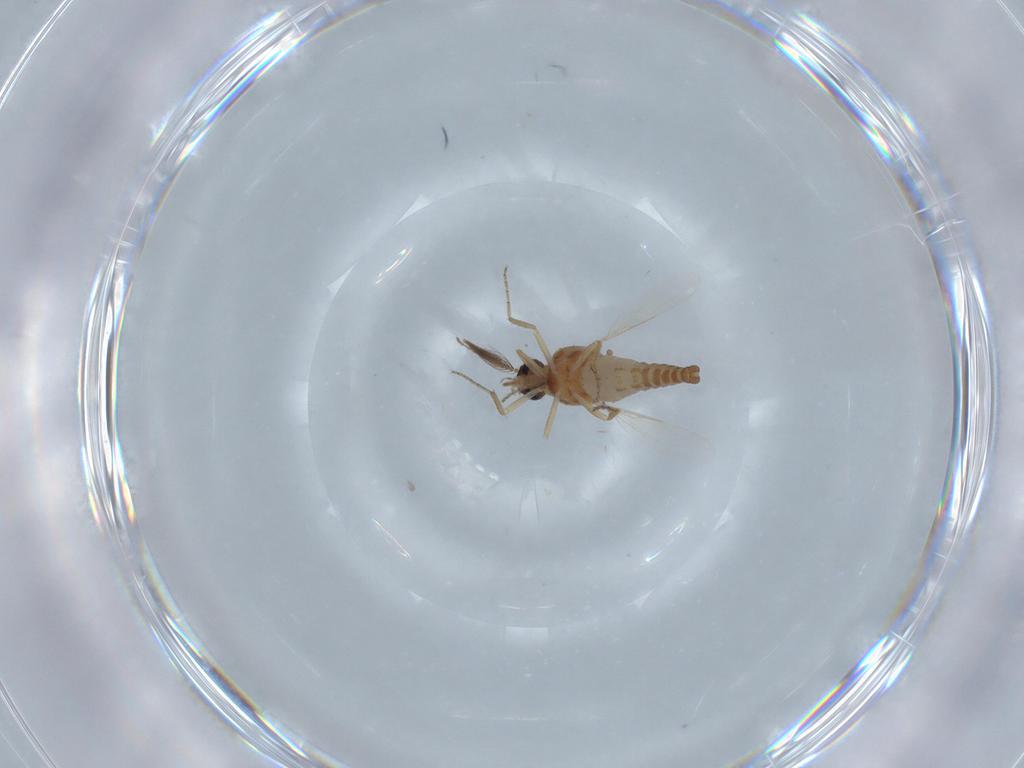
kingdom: Animalia
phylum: Arthropoda
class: Insecta
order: Diptera
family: Ceratopogonidae
